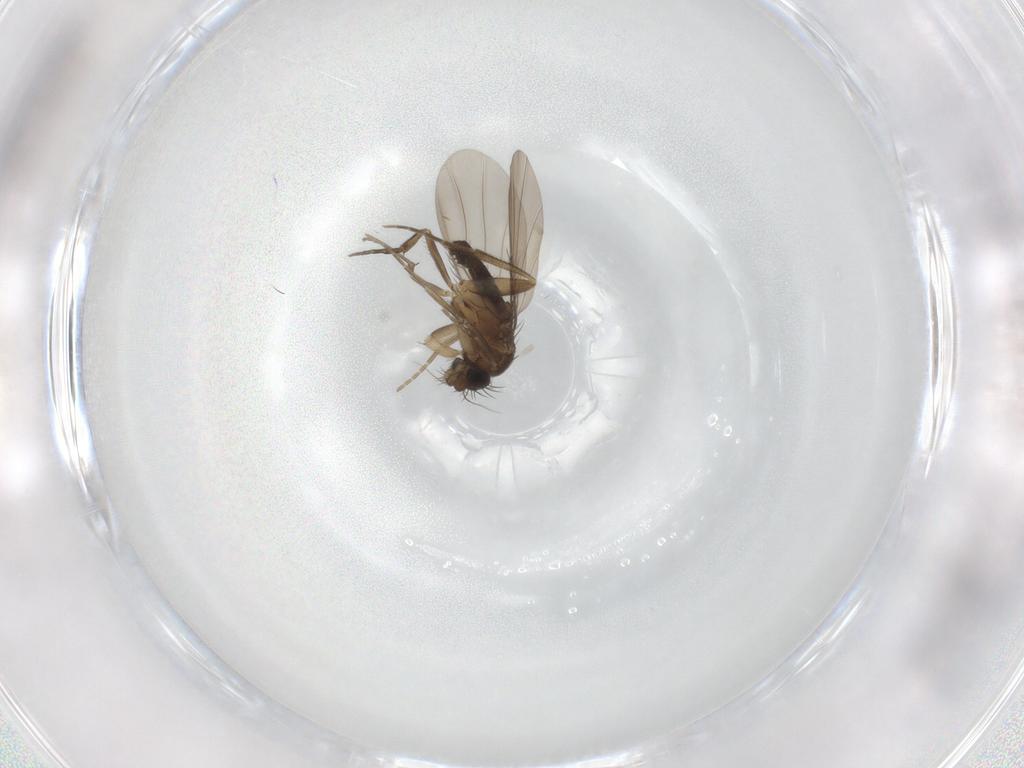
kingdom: Animalia
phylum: Arthropoda
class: Insecta
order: Diptera
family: Phoridae
